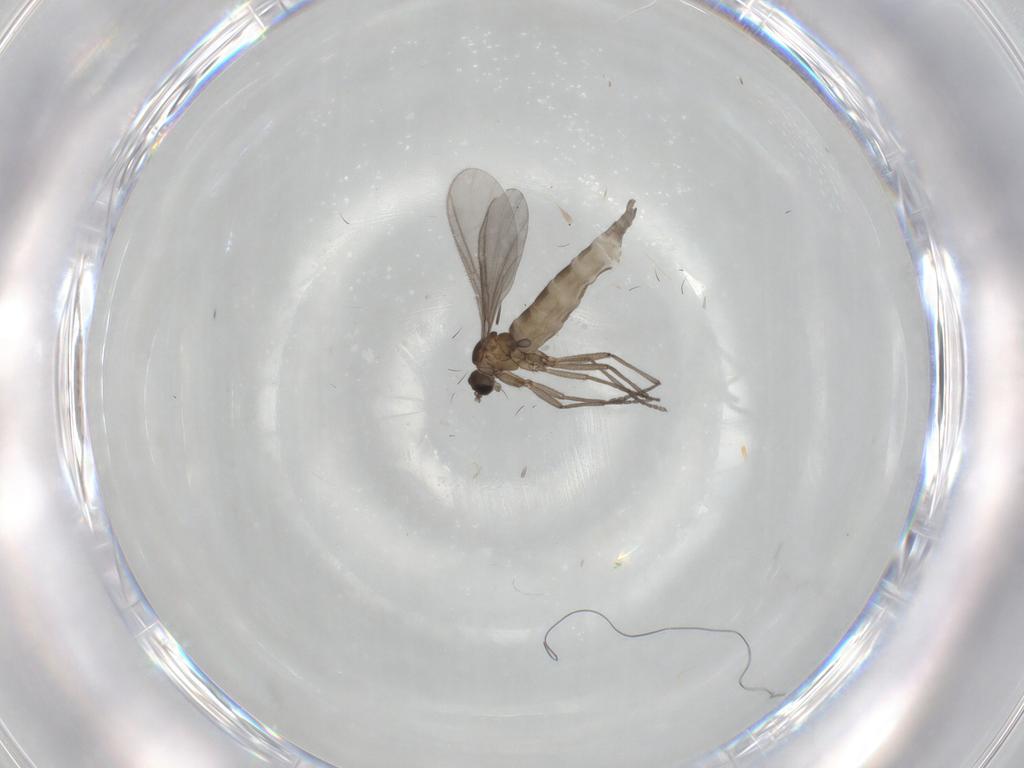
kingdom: Animalia
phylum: Arthropoda
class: Insecta
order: Diptera
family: Sciaridae
